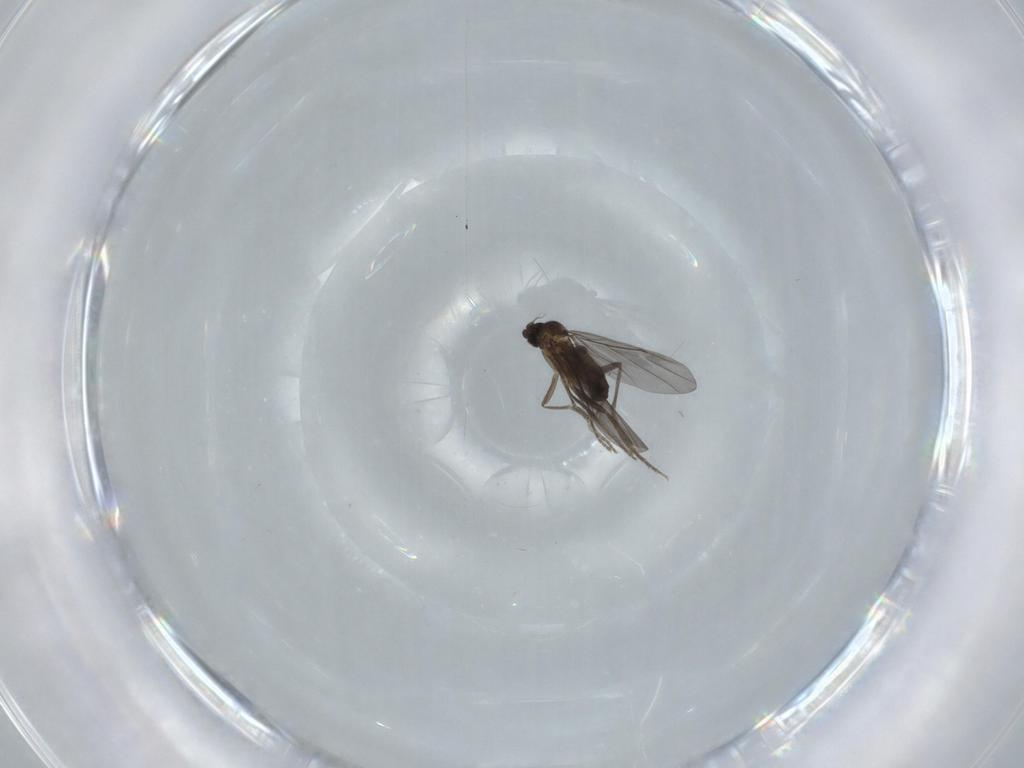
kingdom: Animalia
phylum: Arthropoda
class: Insecta
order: Diptera
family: Phoridae
